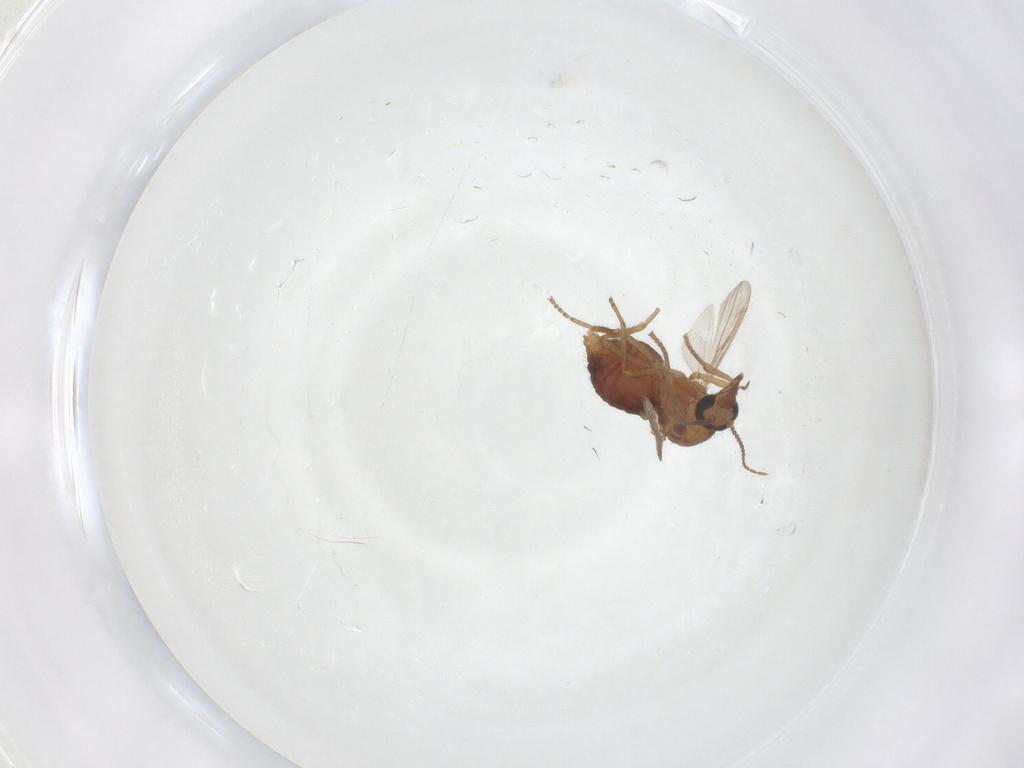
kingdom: Animalia
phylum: Arthropoda
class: Insecta
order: Diptera
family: Ceratopogonidae
